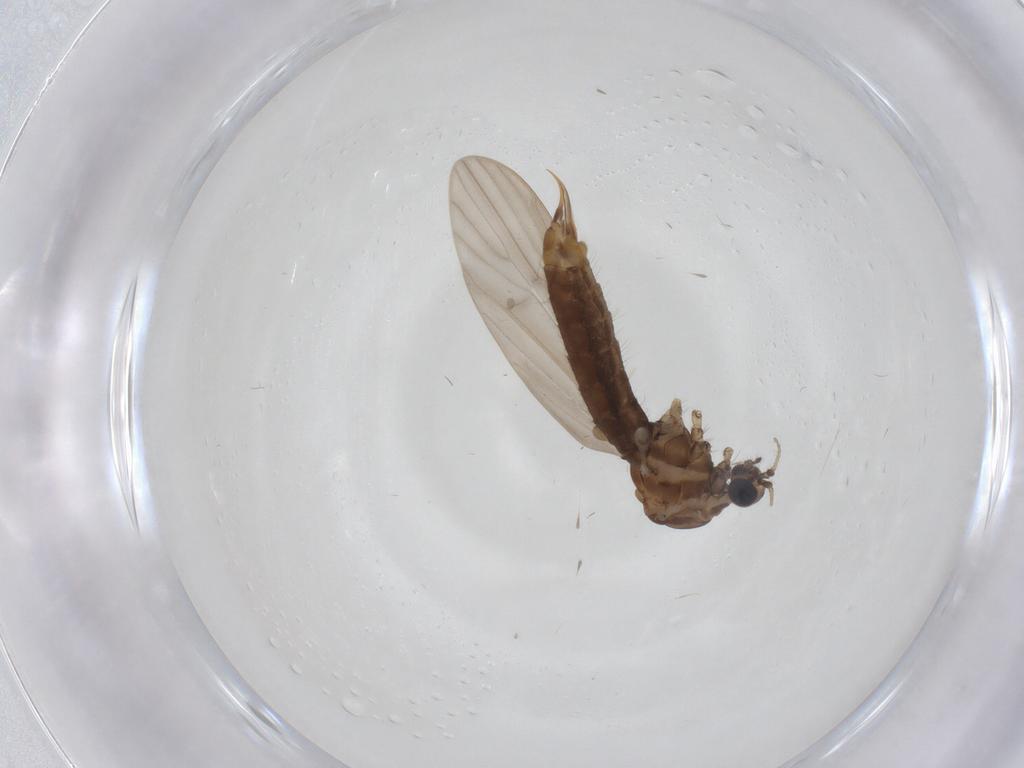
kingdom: Animalia
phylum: Arthropoda
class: Insecta
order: Diptera
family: Limoniidae
